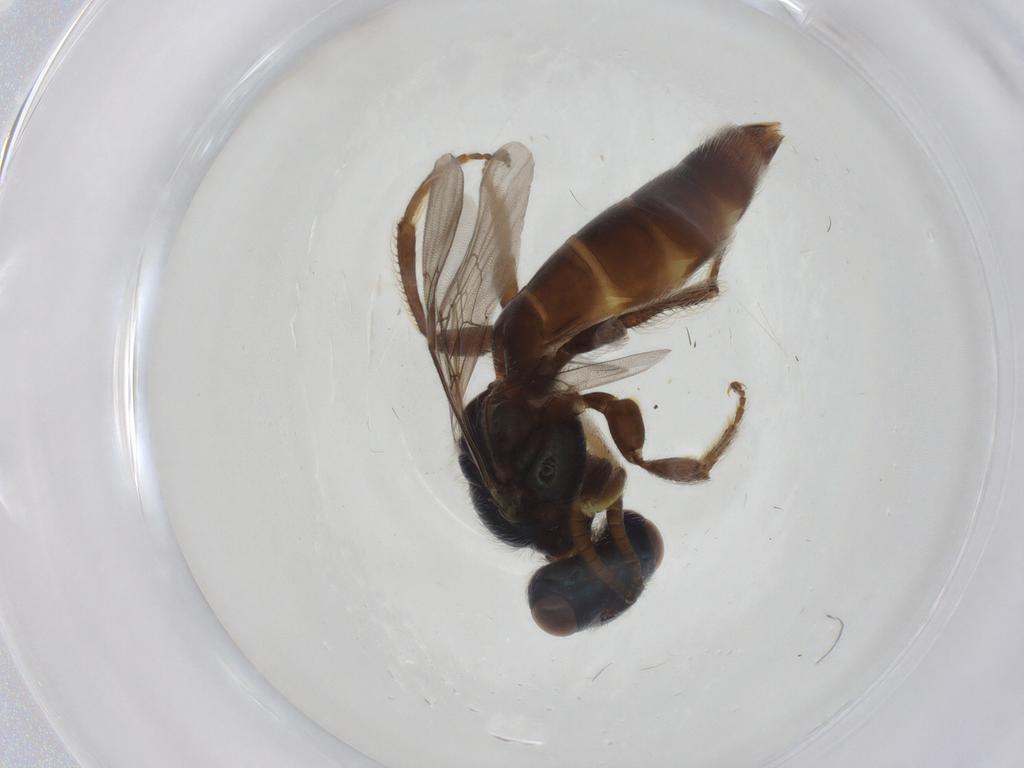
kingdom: Animalia
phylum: Arthropoda
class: Insecta
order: Hymenoptera
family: Andrenidae
